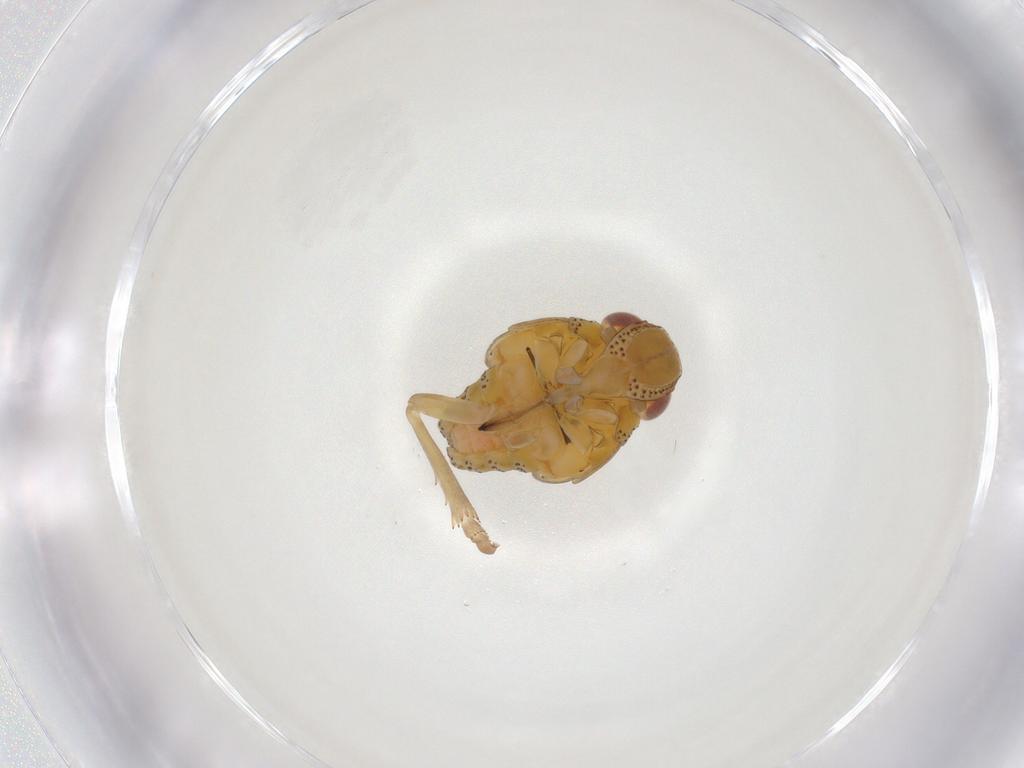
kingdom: Animalia
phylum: Arthropoda
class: Insecta
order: Hemiptera
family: Tropiduchidae
